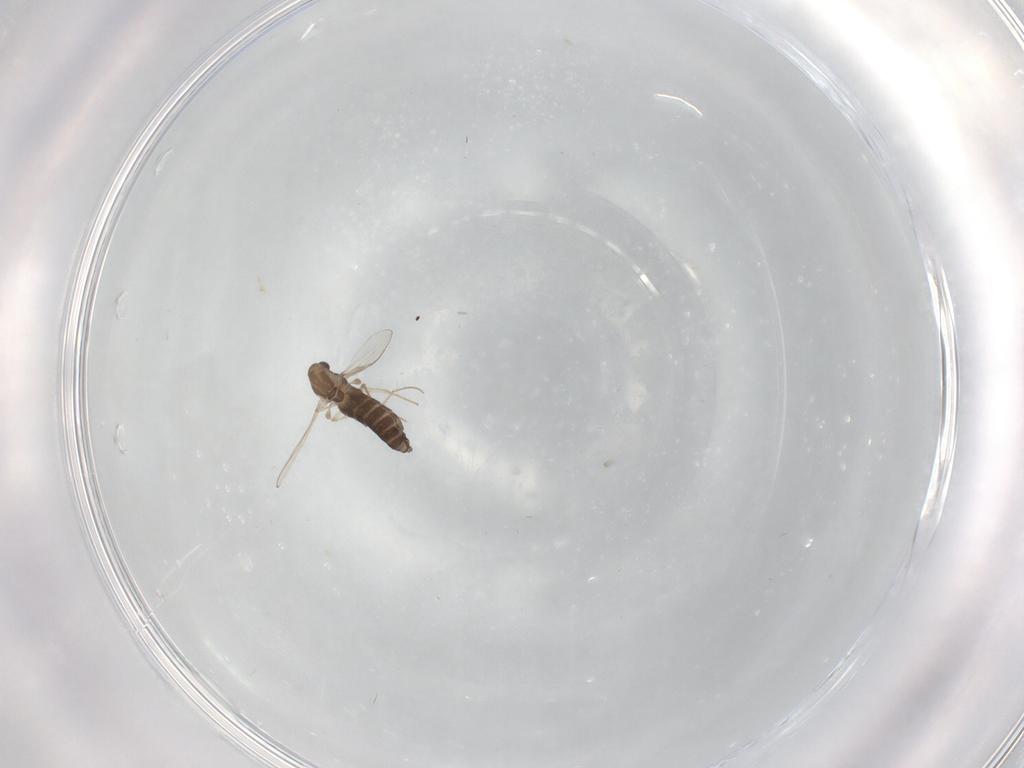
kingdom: Animalia
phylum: Arthropoda
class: Insecta
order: Diptera
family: Chironomidae
